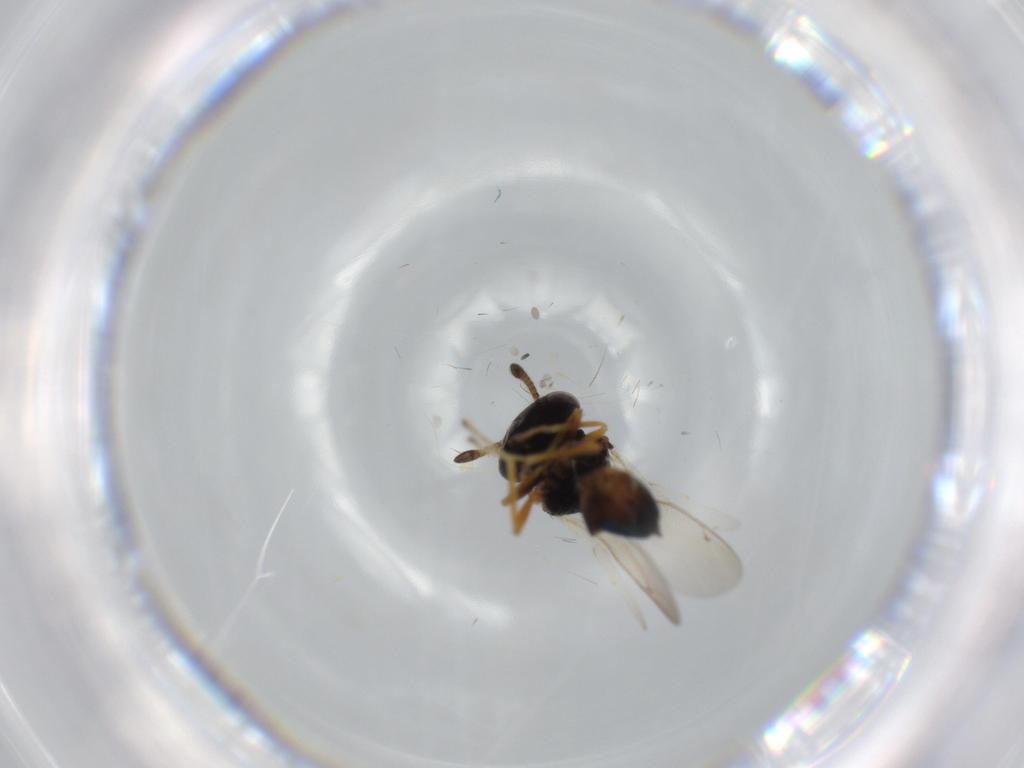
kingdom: Animalia
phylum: Arthropoda
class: Insecta
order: Hymenoptera
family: Pteromalidae
